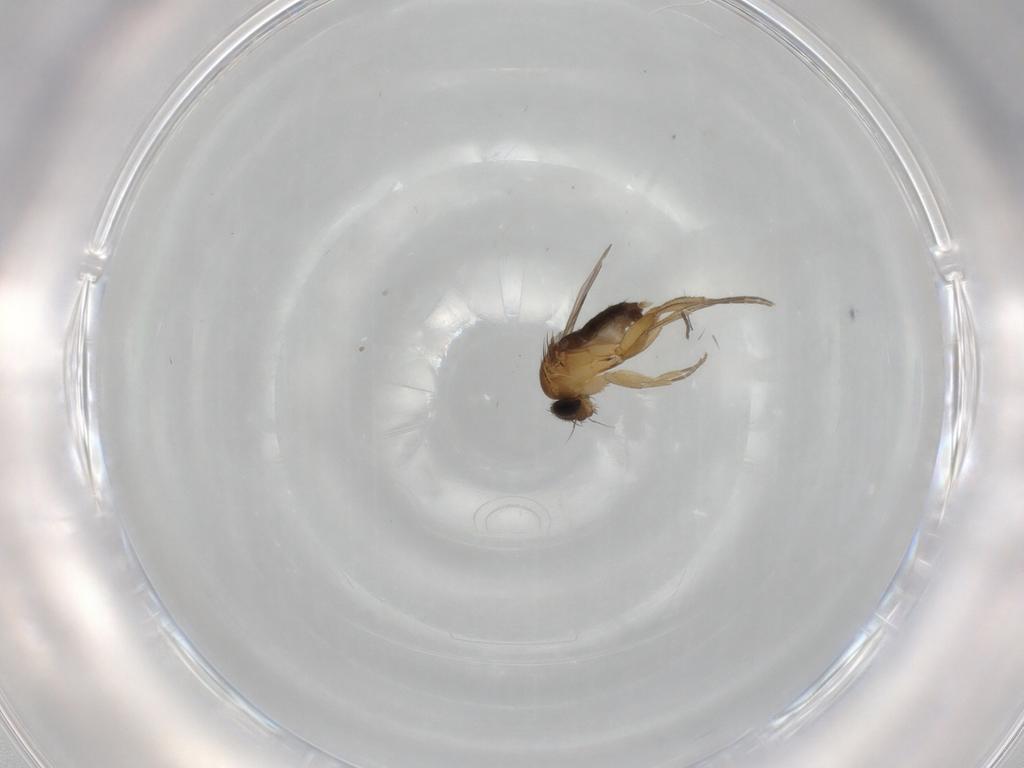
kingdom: Animalia
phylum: Arthropoda
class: Insecta
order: Diptera
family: Phoridae
